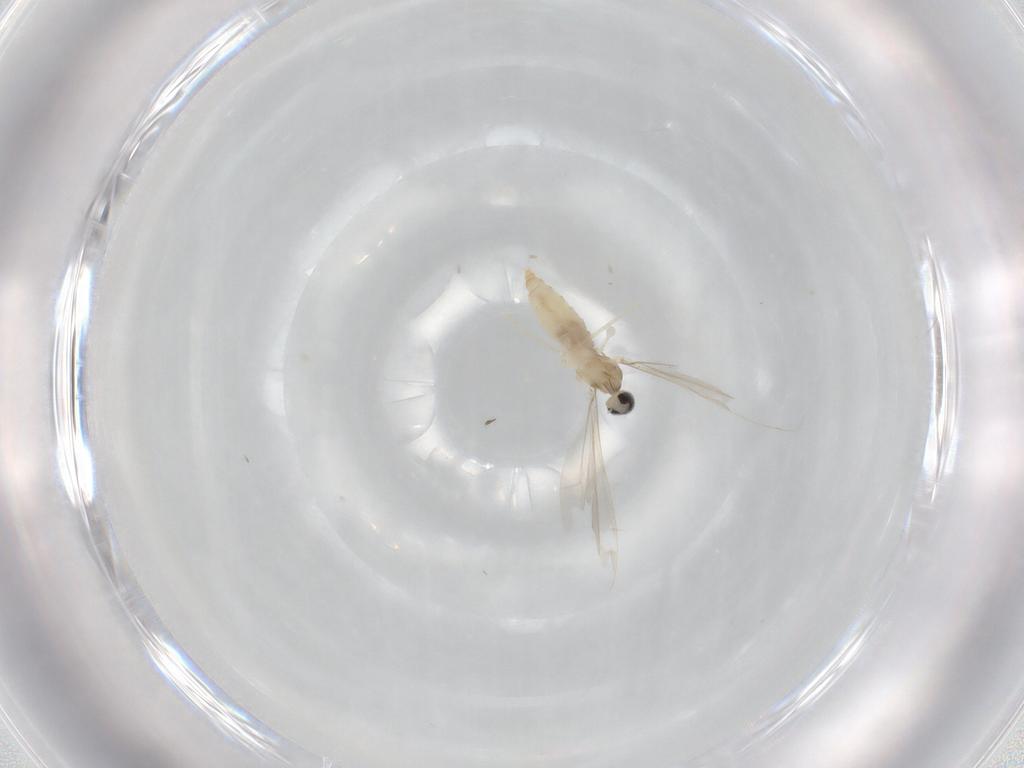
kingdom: Animalia
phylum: Arthropoda
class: Insecta
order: Diptera
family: Cecidomyiidae
